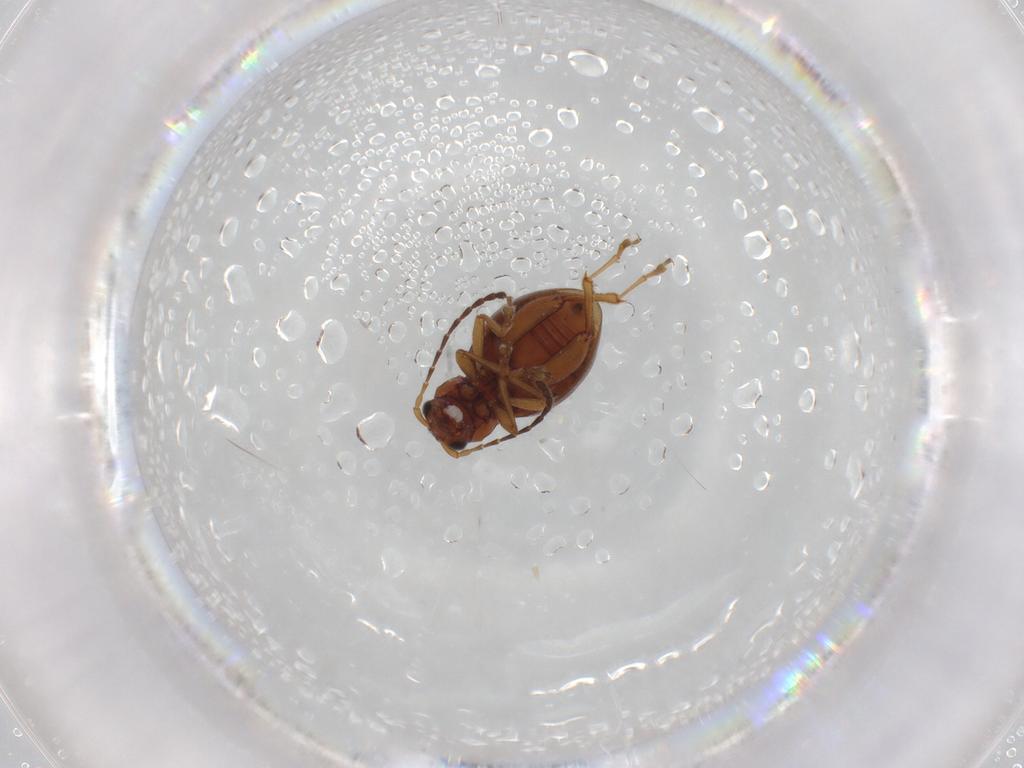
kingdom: Animalia
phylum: Arthropoda
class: Insecta
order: Coleoptera
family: Chrysomelidae
